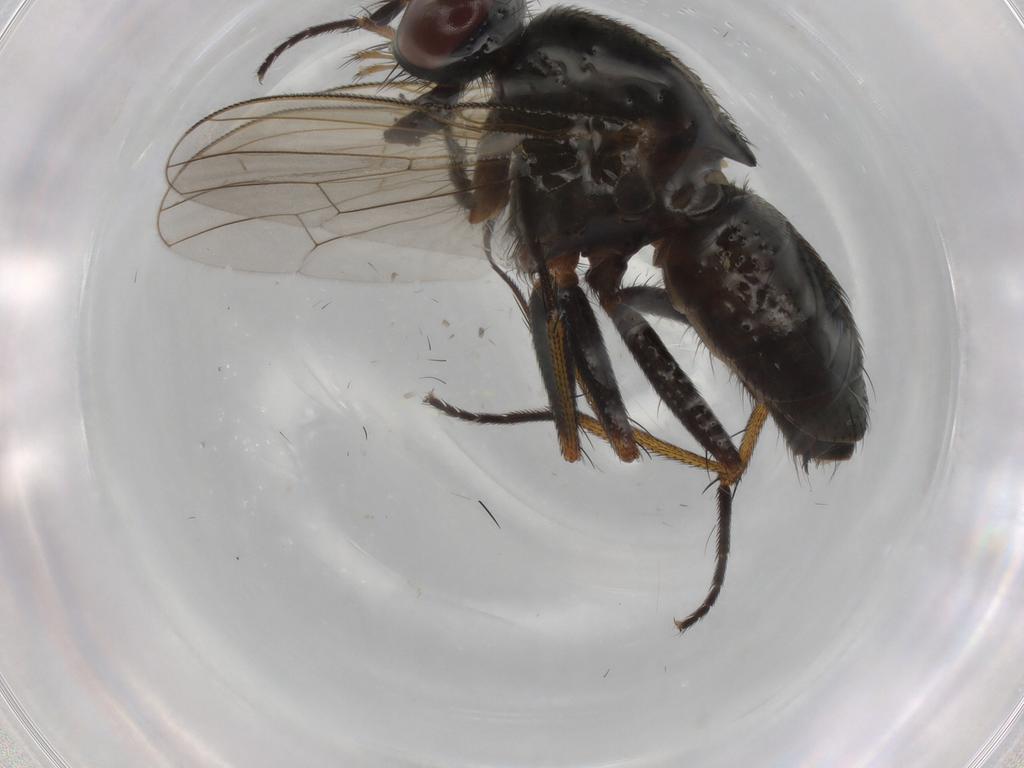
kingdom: Animalia
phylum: Arthropoda
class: Insecta
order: Diptera
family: Muscidae
